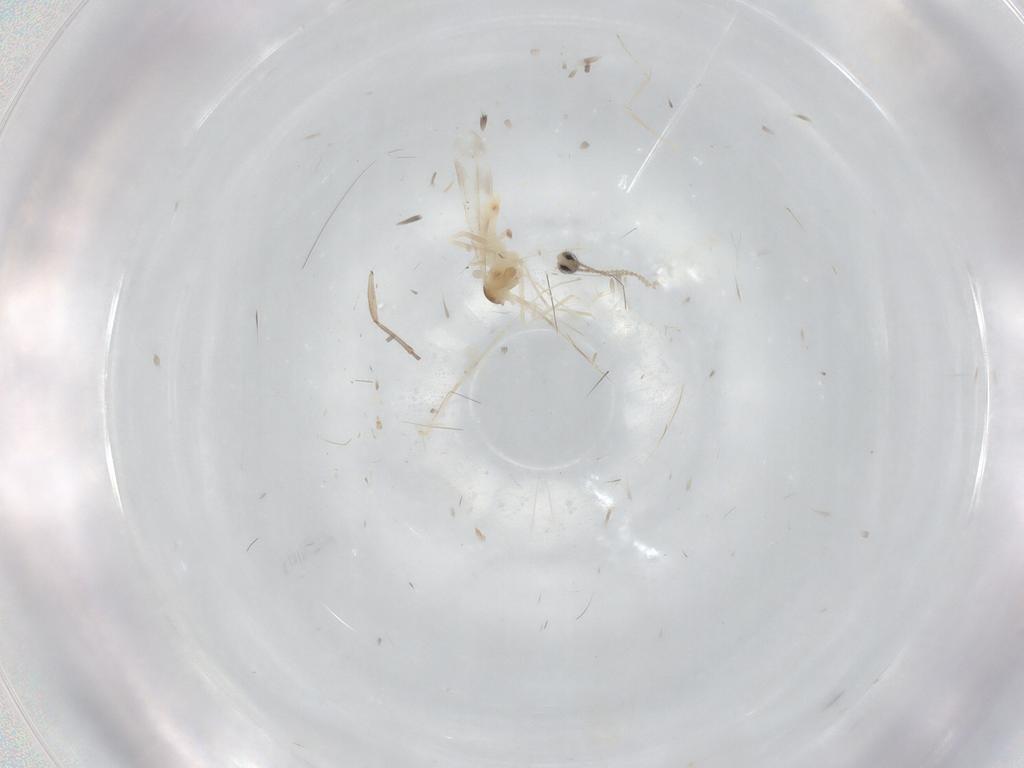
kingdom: Animalia
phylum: Arthropoda
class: Insecta
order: Diptera
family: Cecidomyiidae
